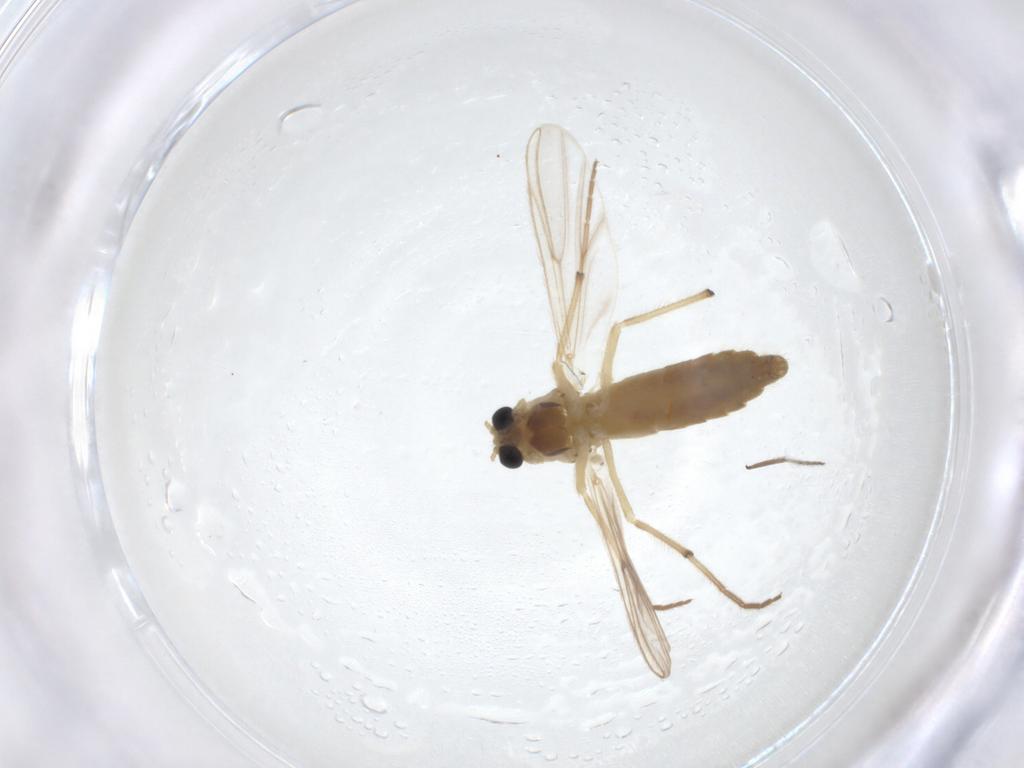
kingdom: Animalia
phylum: Arthropoda
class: Insecta
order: Diptera
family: Chironomidae
